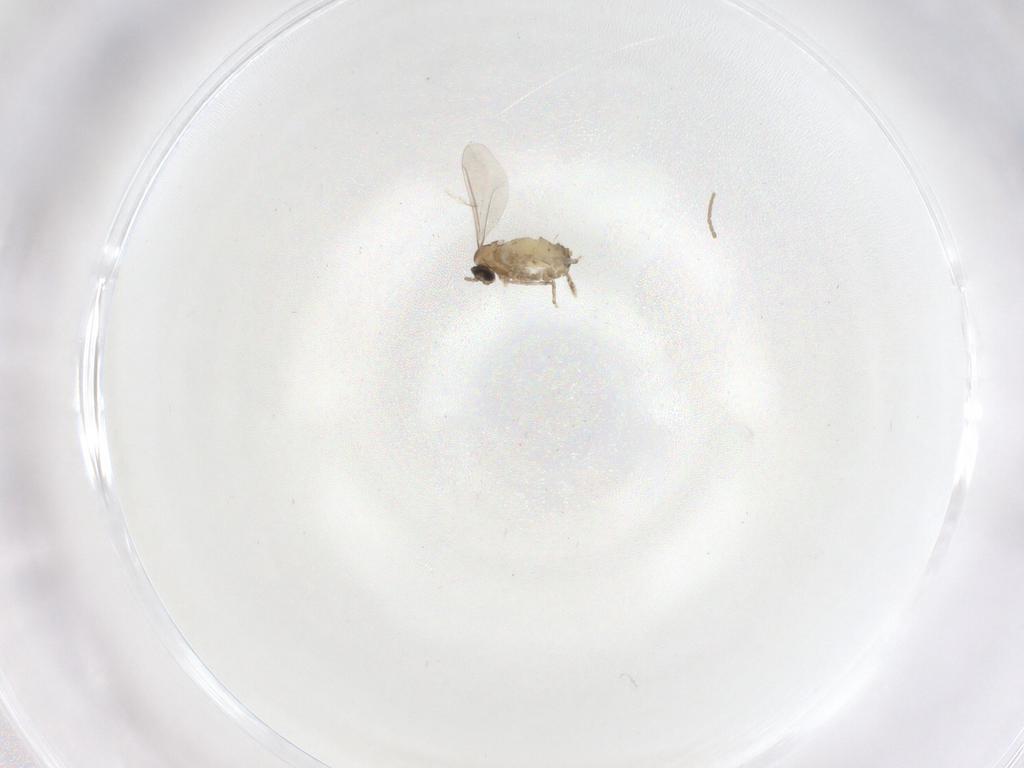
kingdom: Animalia
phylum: Arthropoda
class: Insecta
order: Diptera
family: Cecidomyiidae
